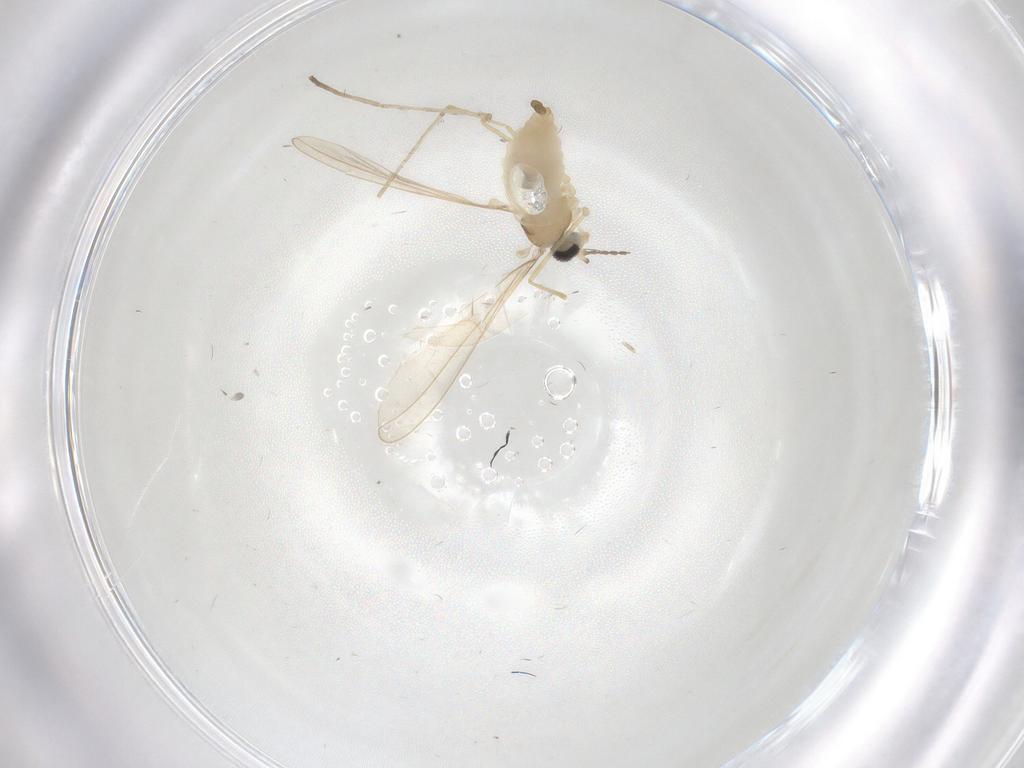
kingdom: Animalia
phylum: Arthropoda
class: Insecta
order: Diptera
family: Cecidomyiidae
